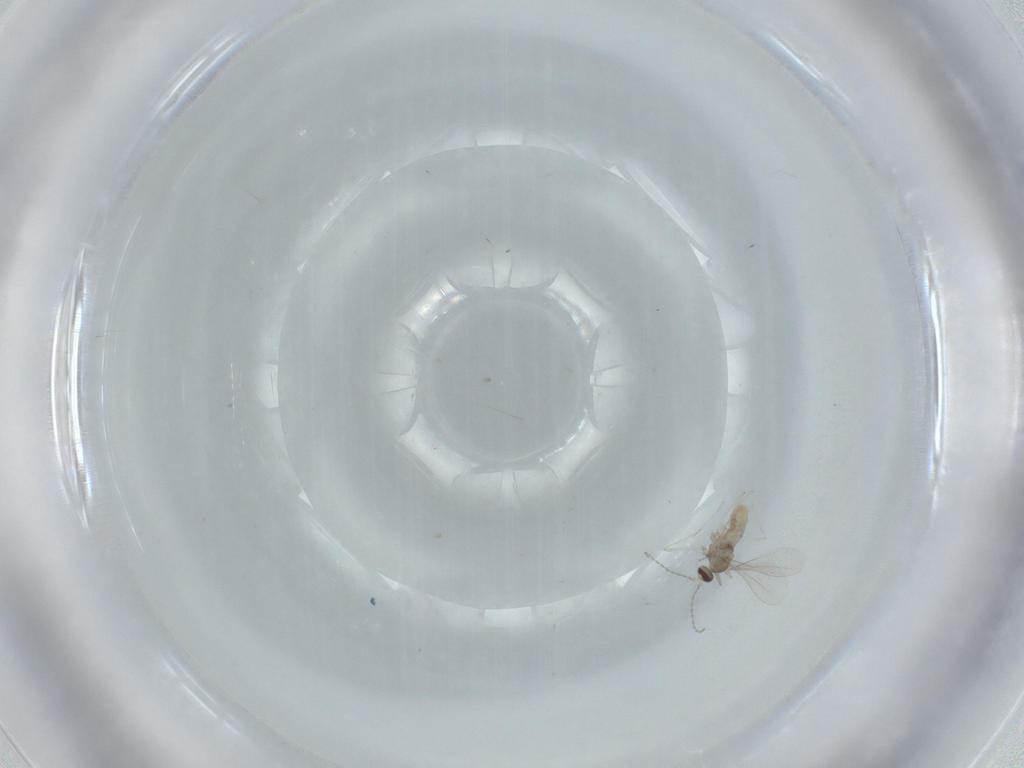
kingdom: Animalia
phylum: Arthropoda
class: Insecta
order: Diptera
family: Cecidomyiidae
